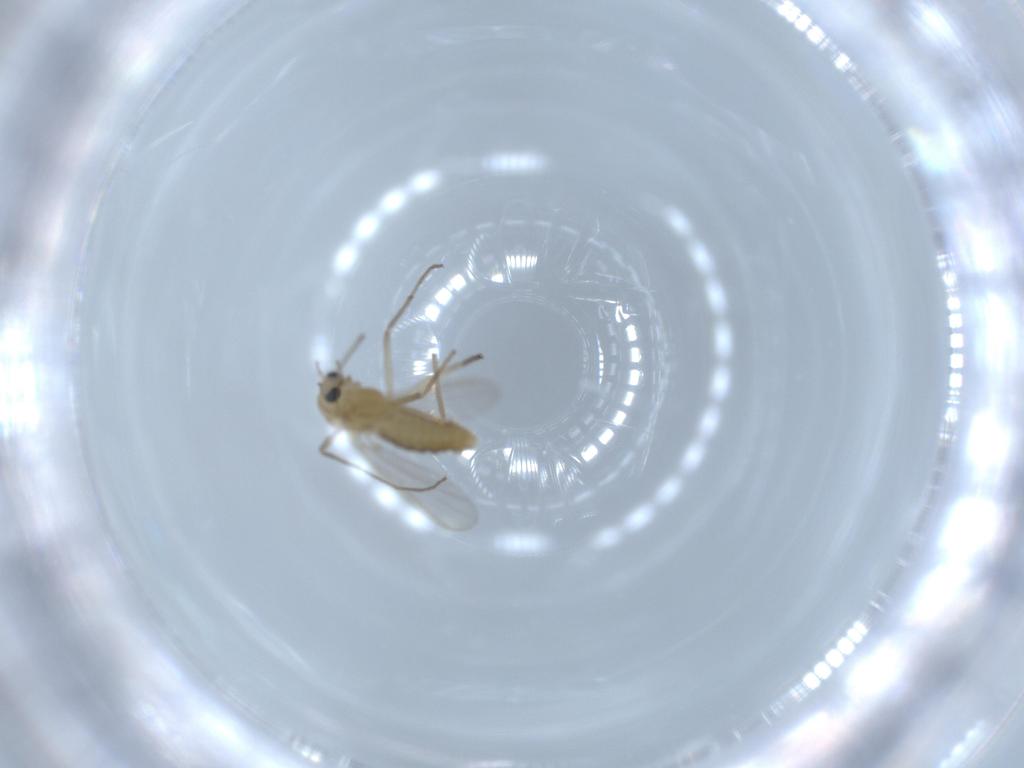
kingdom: Animalia
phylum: Arthropoda
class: Insecta
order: Diptera
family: Chironomidae
